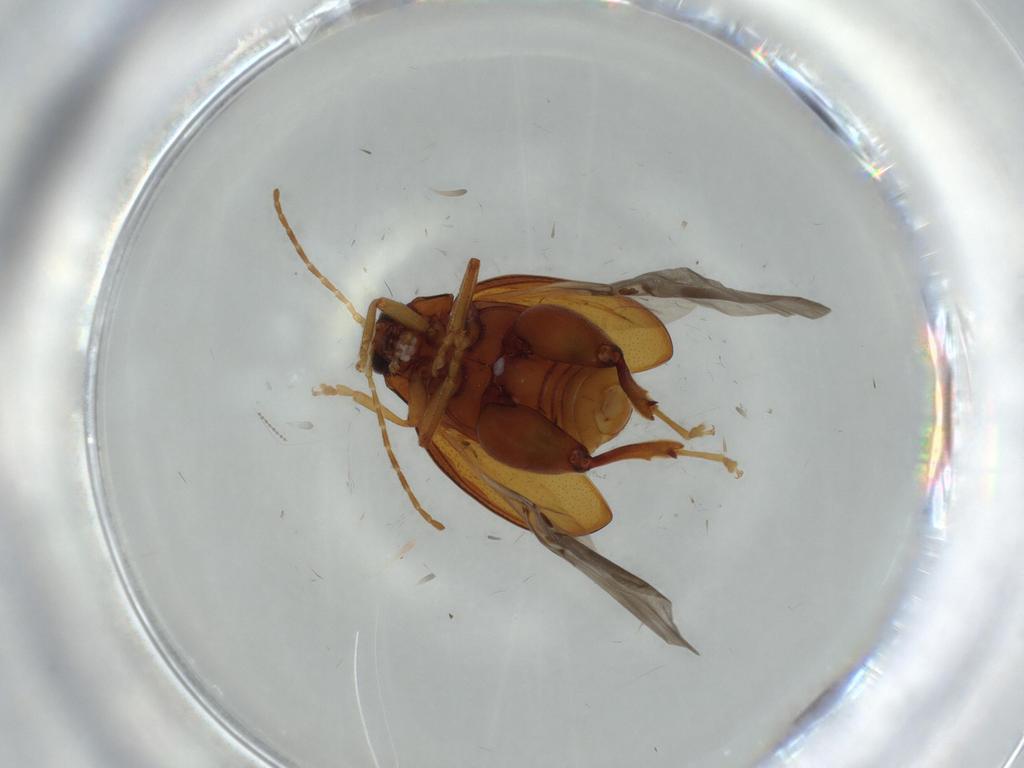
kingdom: Animalia
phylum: Arthropoda
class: Insecta
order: Coleoptera
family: Chrysomelidae
